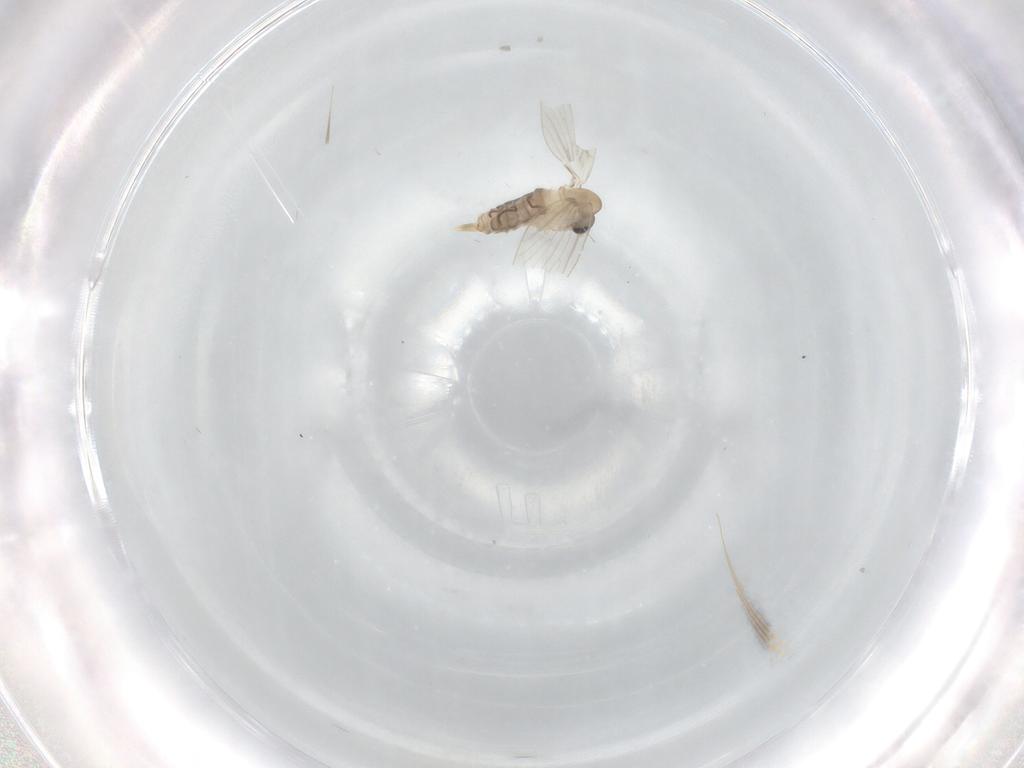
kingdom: Animalia
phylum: Arthropoda
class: Insecta
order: Diptera
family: Psychodidae
